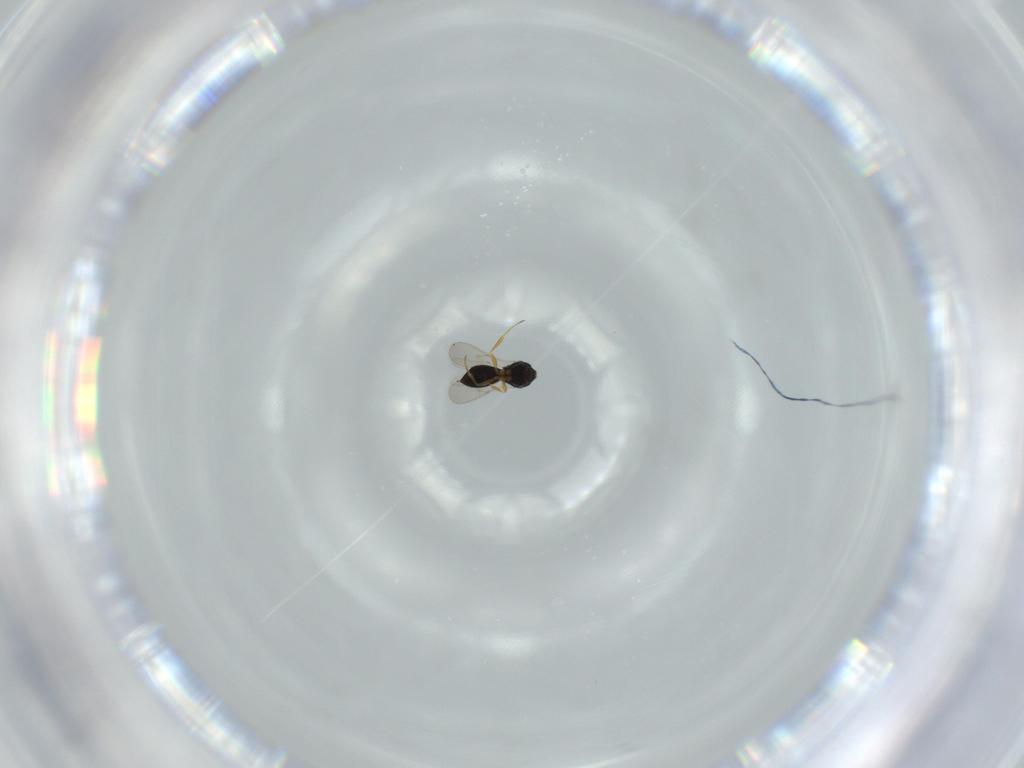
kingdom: Animalia
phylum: Arthropoda
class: Insecta
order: Hymenoptera
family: Scelionidae
